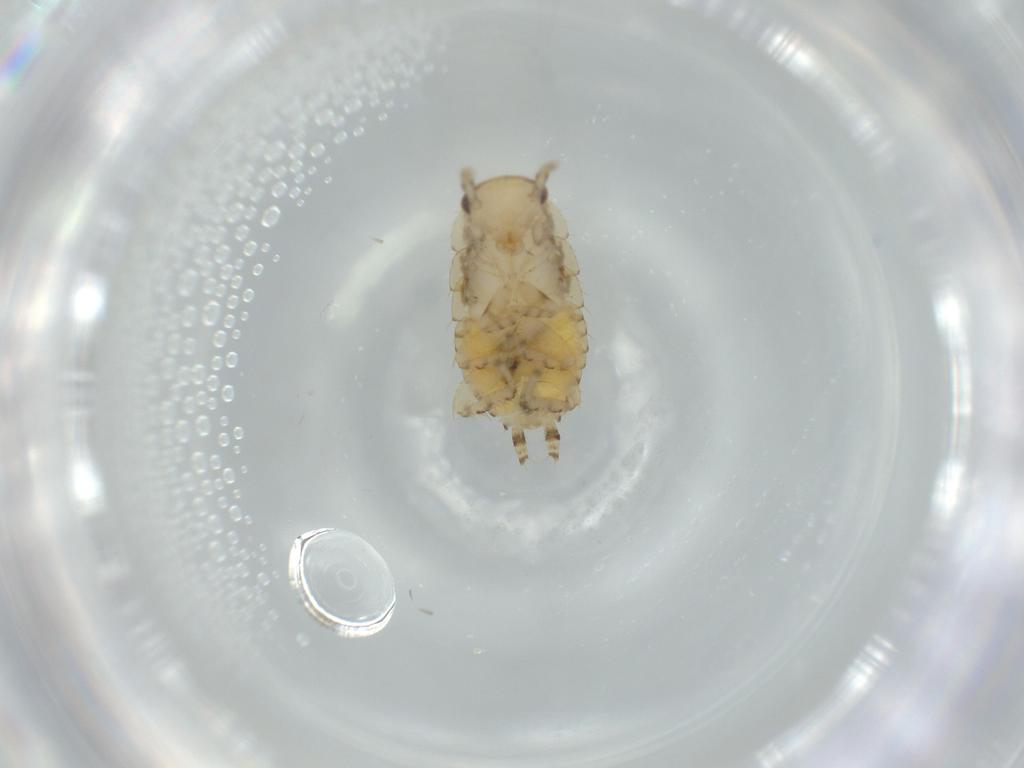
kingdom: Animalia
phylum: Arthropoda
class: Insecta
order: Blattodea
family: Ectobiidae
